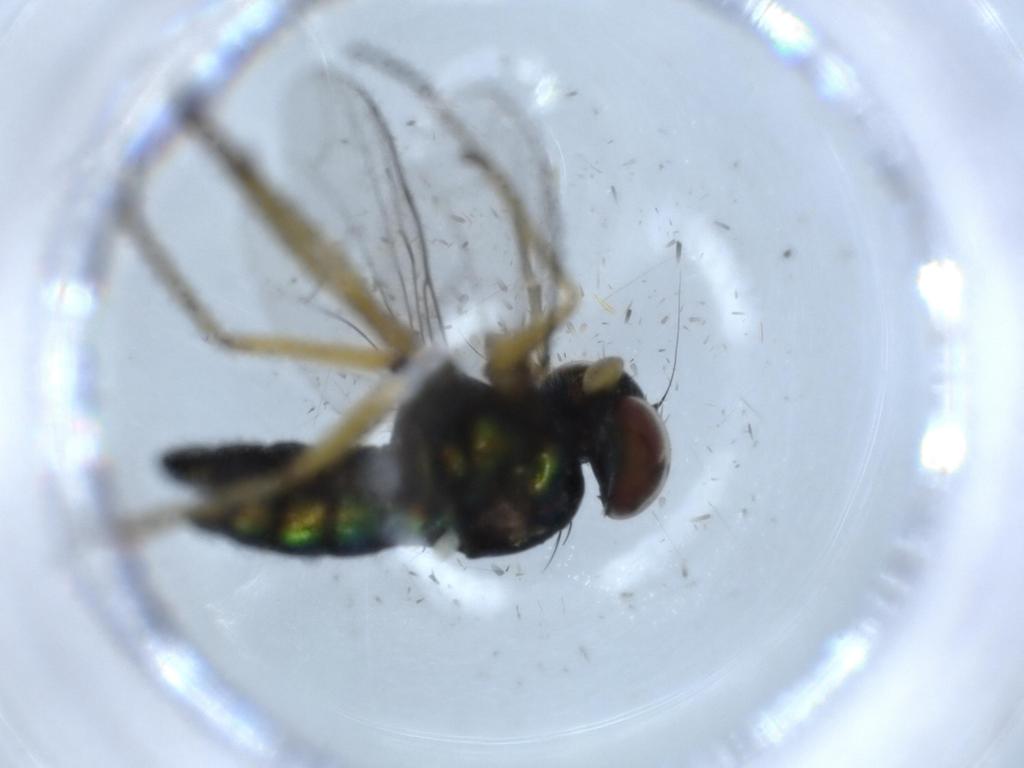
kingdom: Animalia
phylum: Arthropoda
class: Insecta
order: Diptera
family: Dolichopodidae
